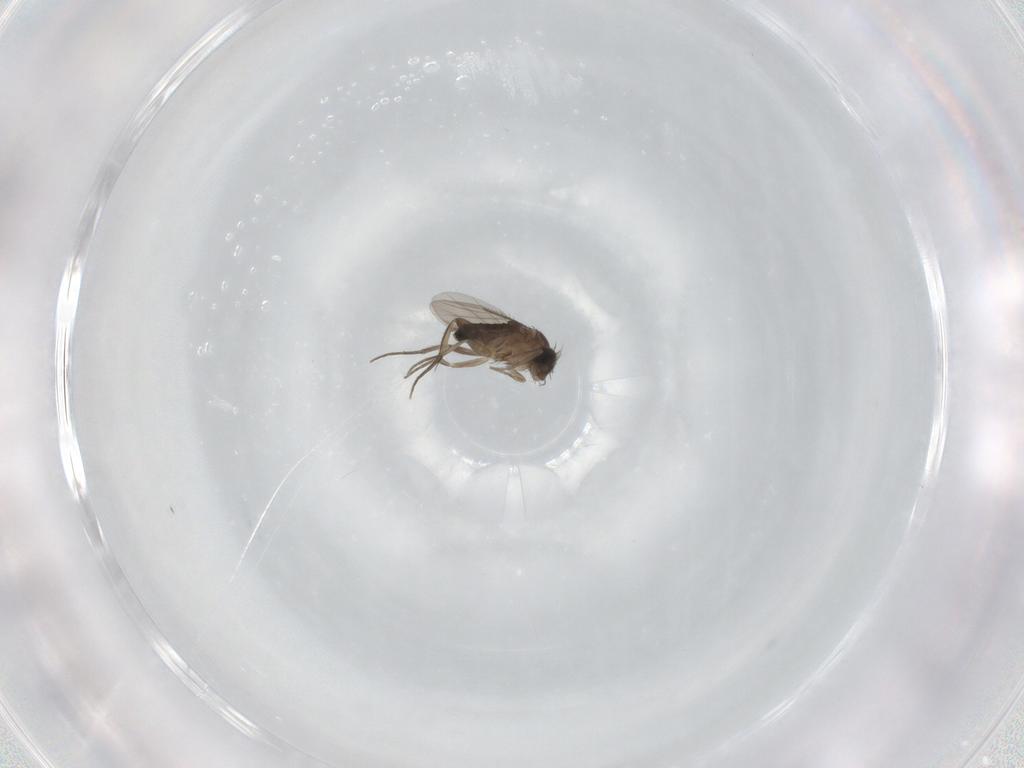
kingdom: Animalia
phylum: Arthropoda
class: Insecta
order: Diptera
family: Phoridae
